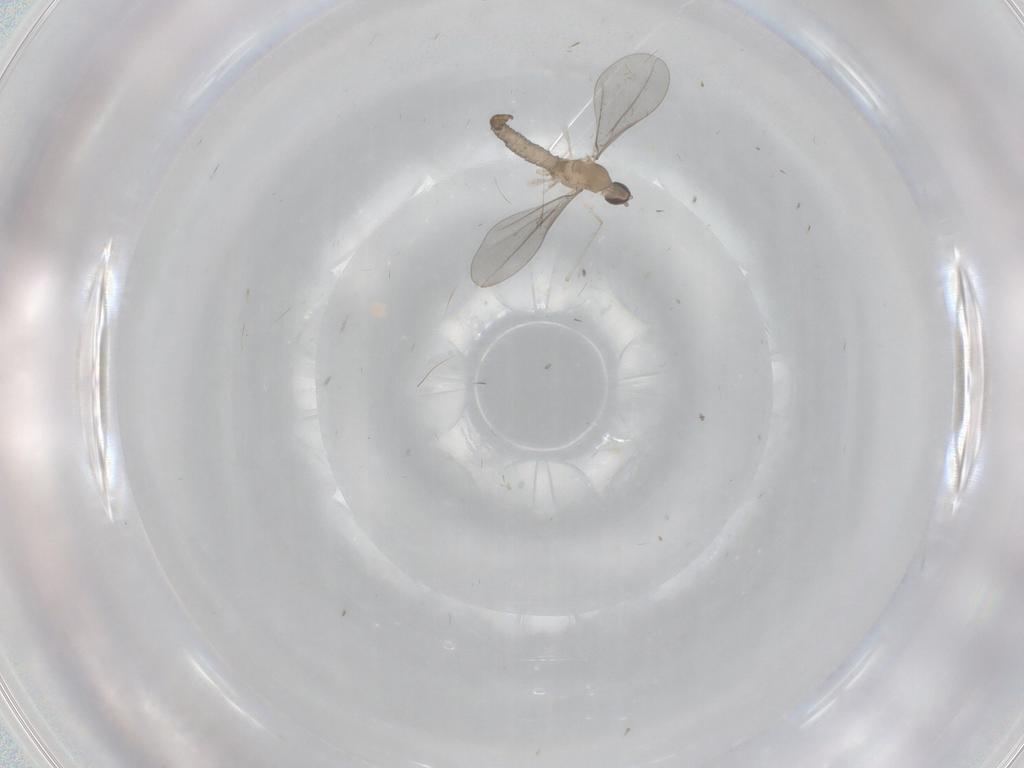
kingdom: Animalia
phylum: Arthropoda
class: Insecta
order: Diptera
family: Cecidomyiidae
